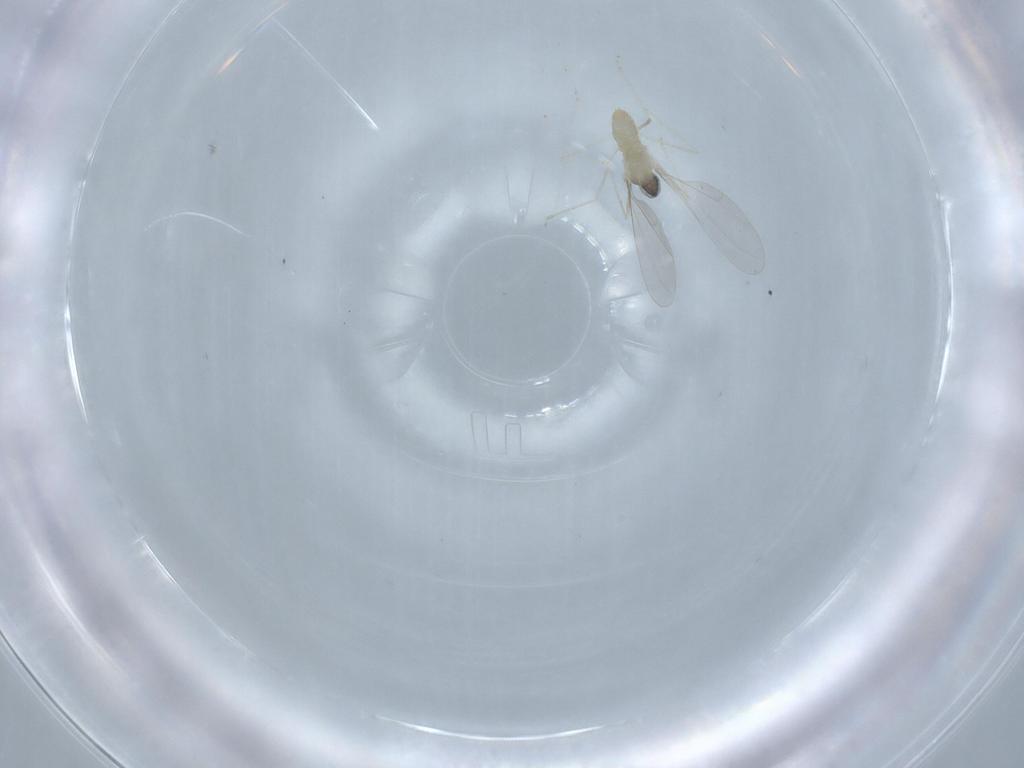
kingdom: Animalia
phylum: Arthropoda
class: Insecta
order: Diptera
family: Cecidomyiidae
